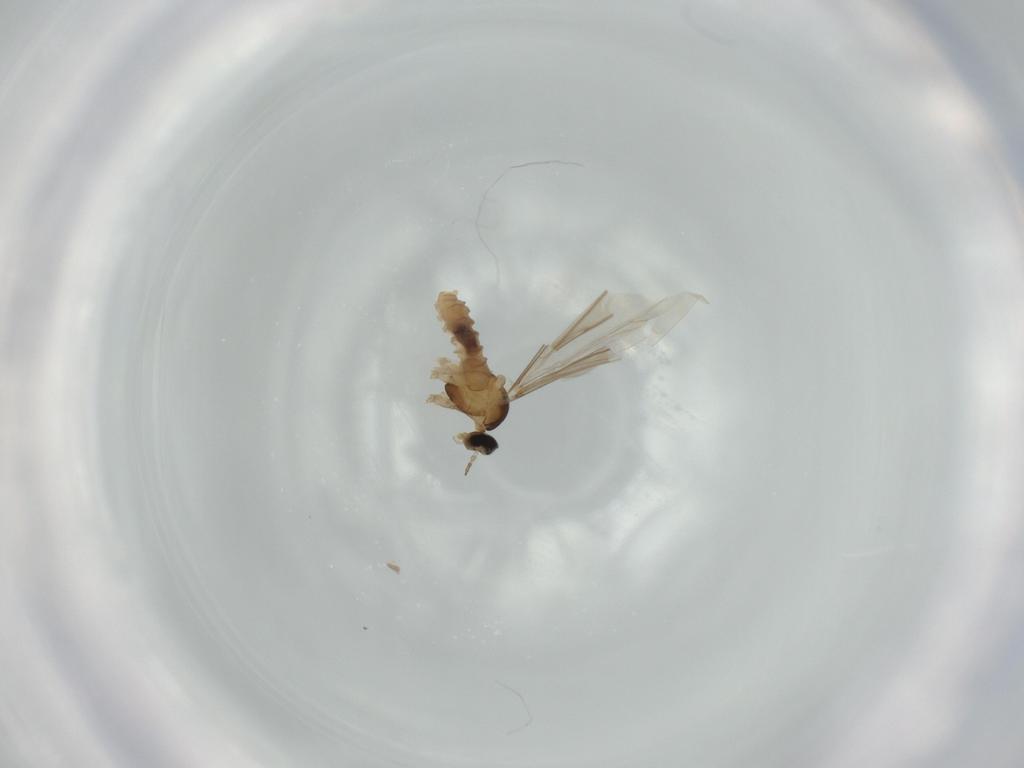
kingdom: Animalia
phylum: Arthropoda
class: Insecta
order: Diptera
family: Cecidomyiidae
